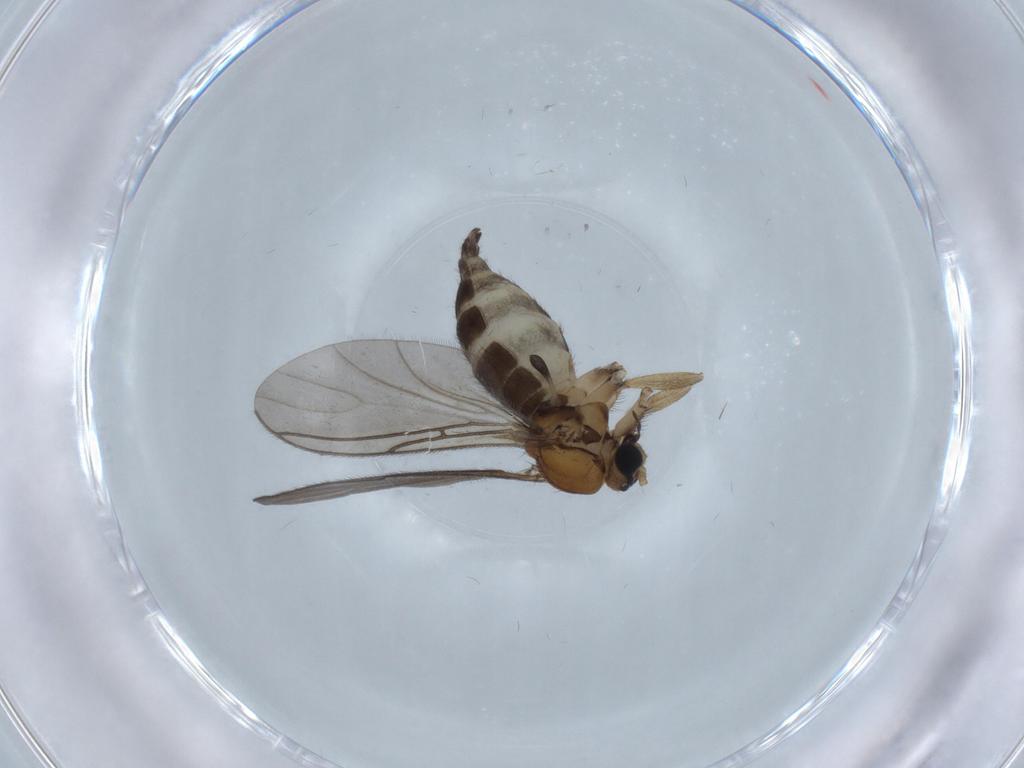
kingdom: Animalia
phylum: Arthropoda
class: Insecta
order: Diptera
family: Sciaridae
